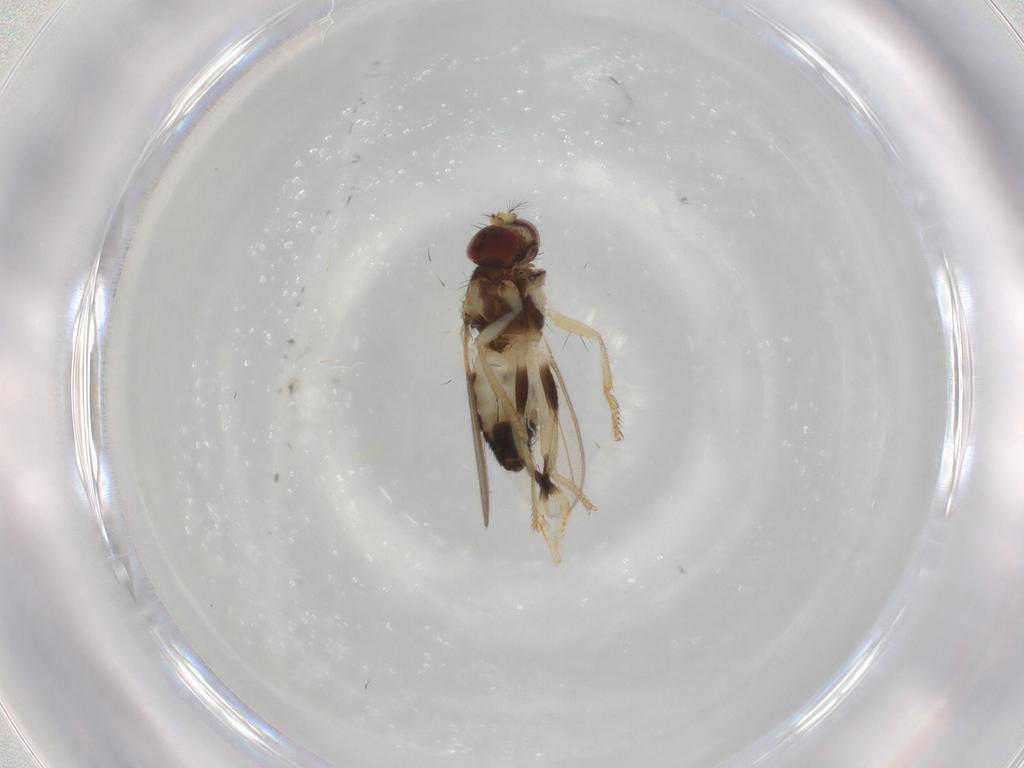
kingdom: Animalia
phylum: Arthropoda
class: Insecta
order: Diptera
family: Periscelididae
